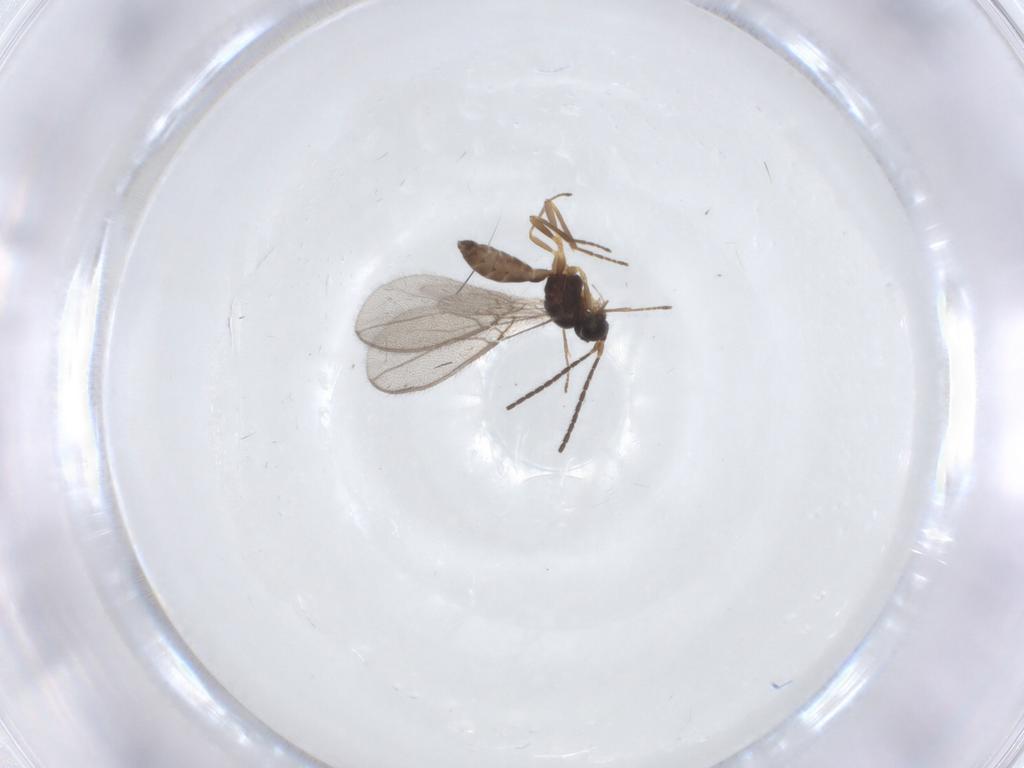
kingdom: Animalia
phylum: Arthropoda
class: Insecta
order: Hymenoptera
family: Braconidae
